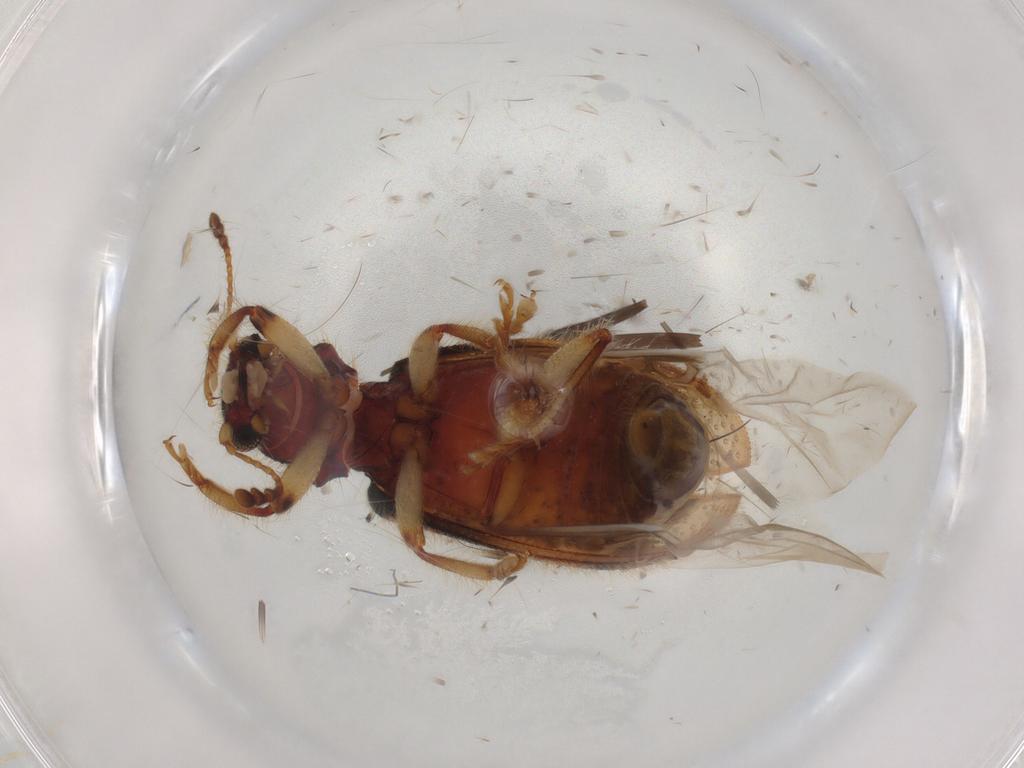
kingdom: Animalia
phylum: Arthropoda
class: Insecta
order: Coleoptera
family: Cleridae
